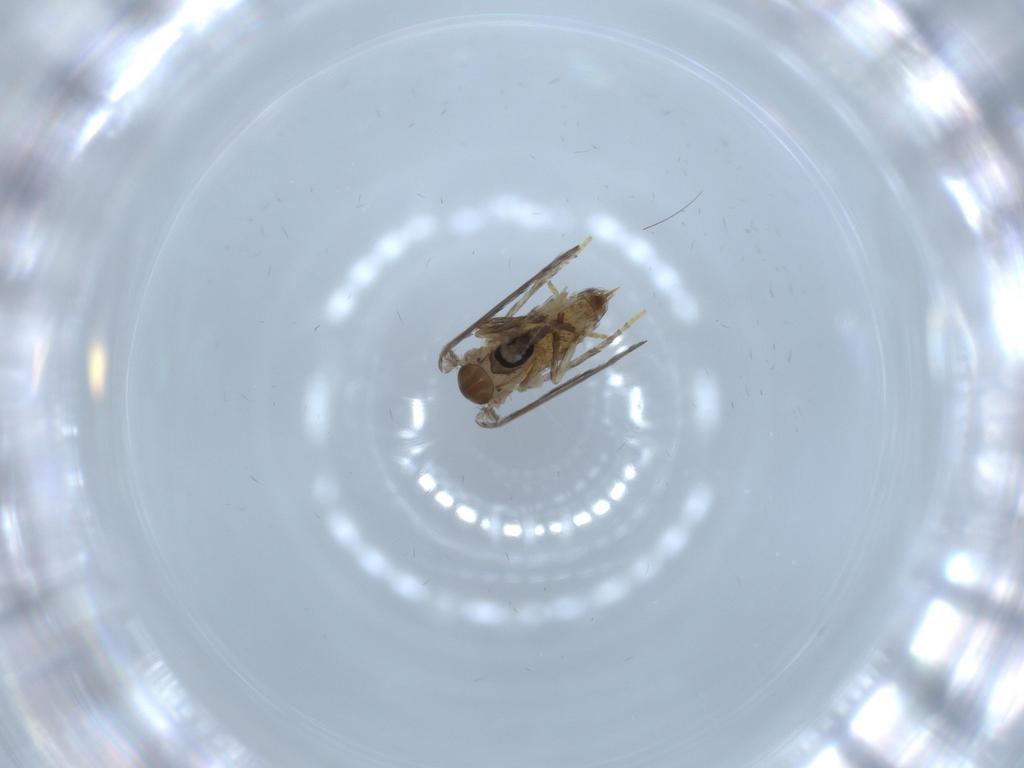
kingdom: Animalia
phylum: Arthropoda
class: Insecta
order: Diptera
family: Psychodidae
